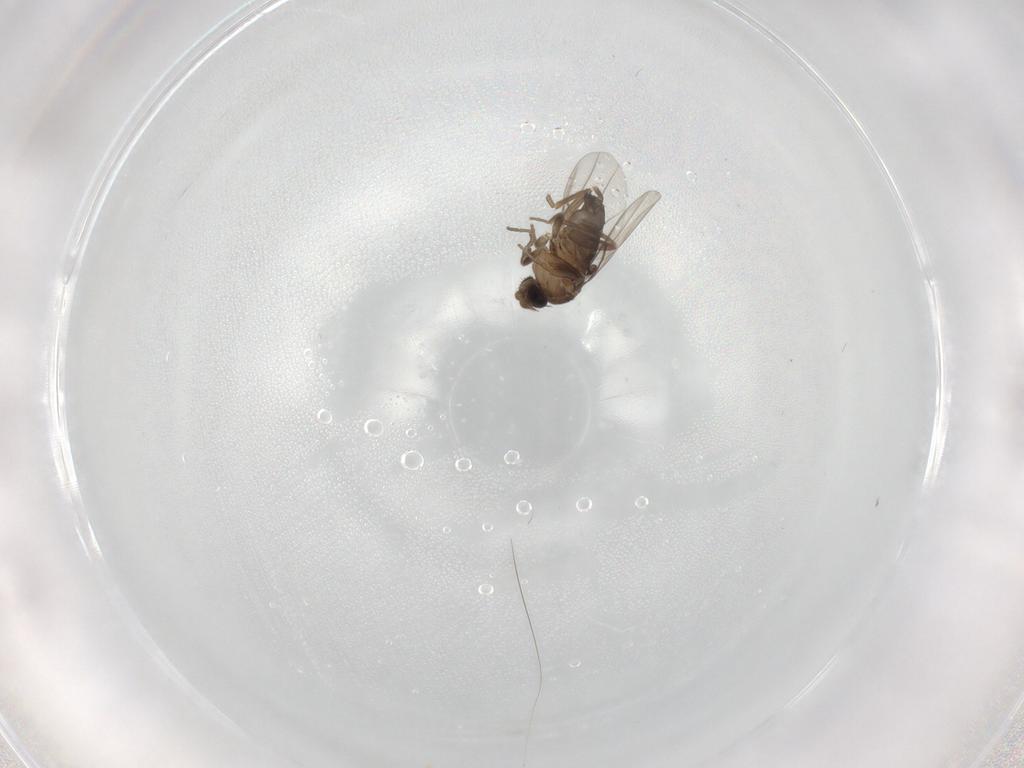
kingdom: Animalia
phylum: Arthropoda
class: Insecta
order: Diptera
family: Phoridae
